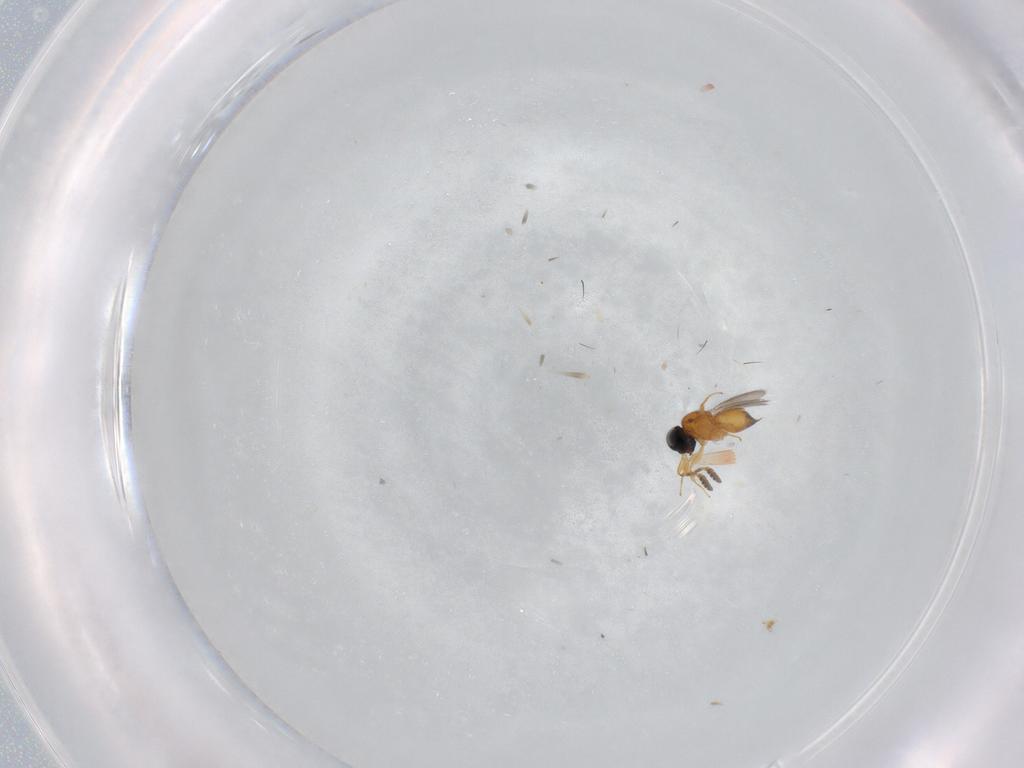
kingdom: Animalia
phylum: Arthropoda
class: Insecta
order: Hymenoptera
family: Scelionidae
